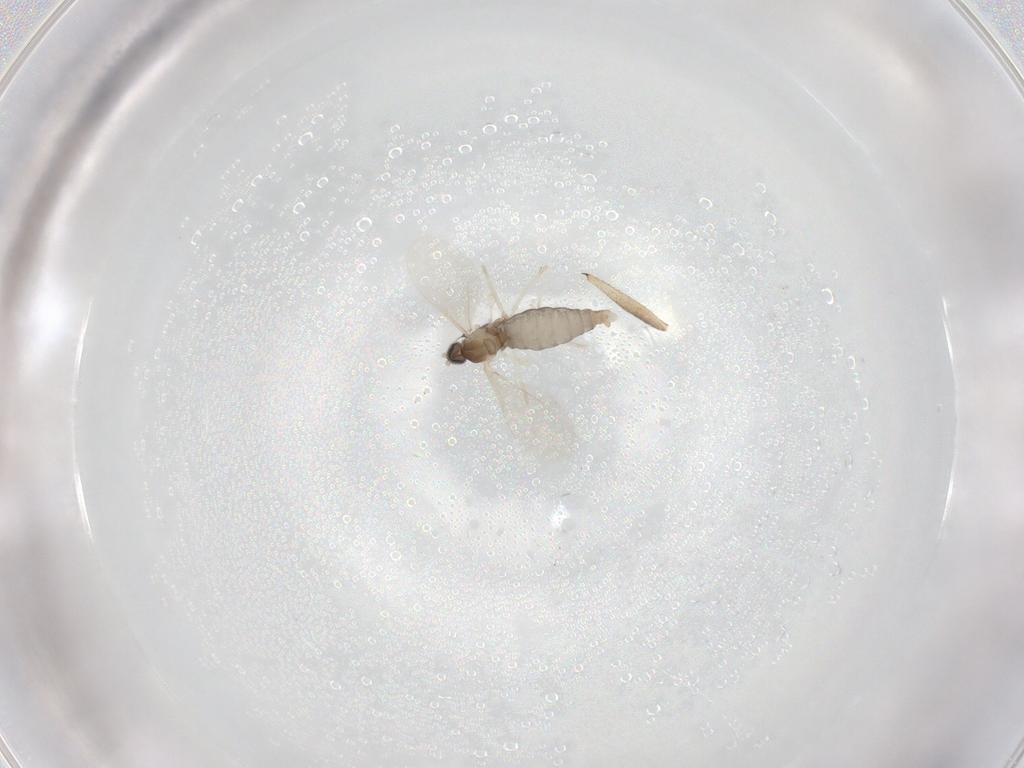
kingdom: Animalia
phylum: Arthropoda
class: Insecta
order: Diptera
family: Cecidomyiidae
